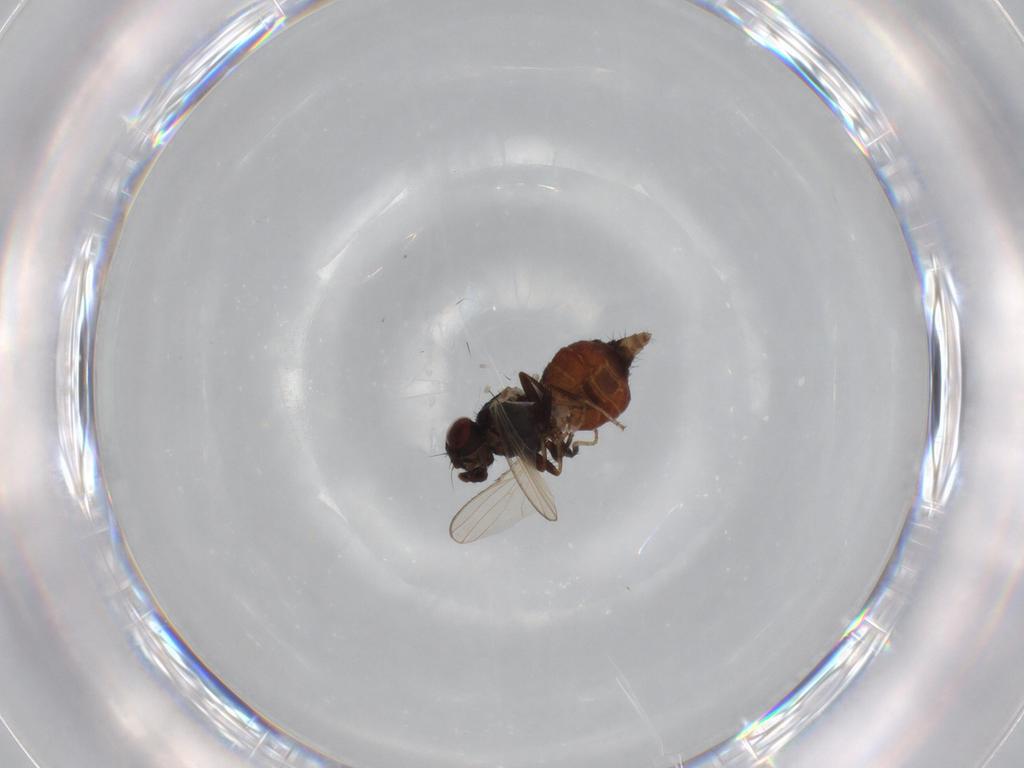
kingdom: Animalia
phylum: Arthropoda
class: Insecta
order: Diptera
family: Carnidae
